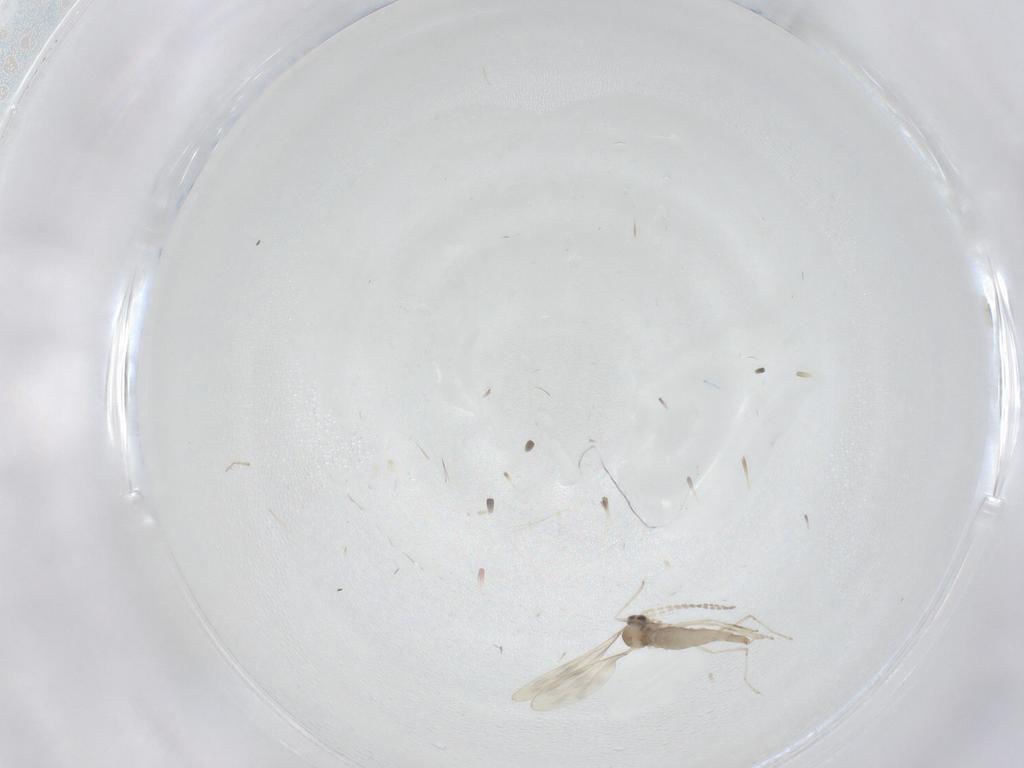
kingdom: Animalia
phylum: Arthropoda
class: Insecta
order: Diptera
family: Cecidomyiidae
